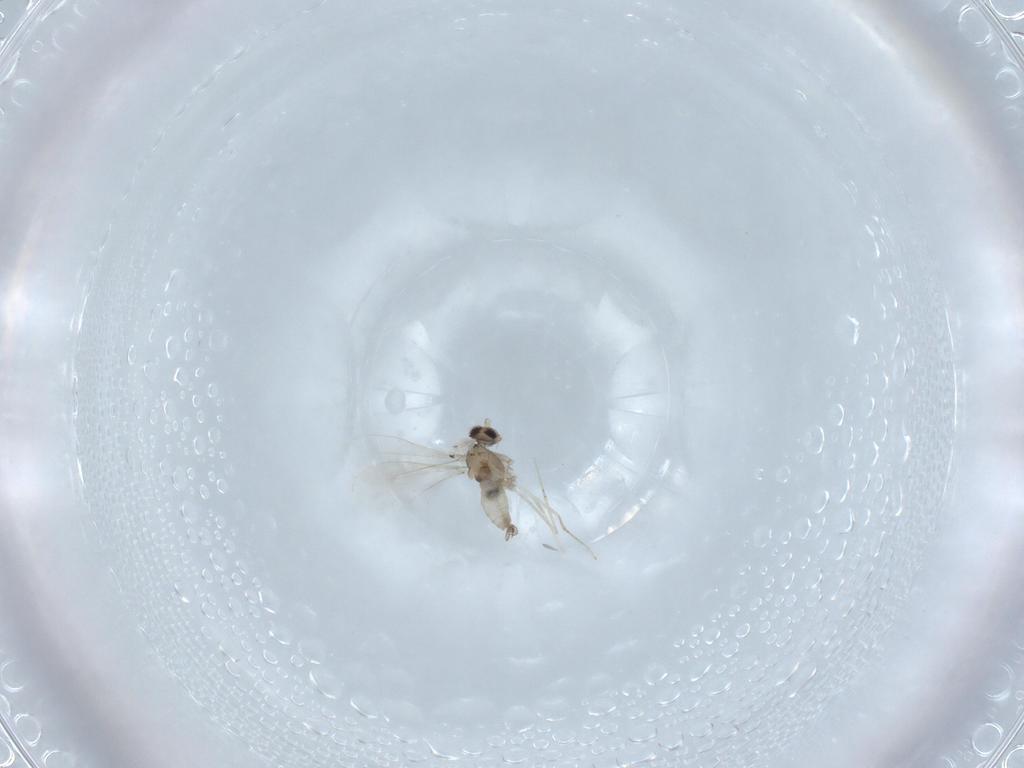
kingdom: Animalia
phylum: Arthropoda
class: Insecta
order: Diptera
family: Cecidomyiidae
